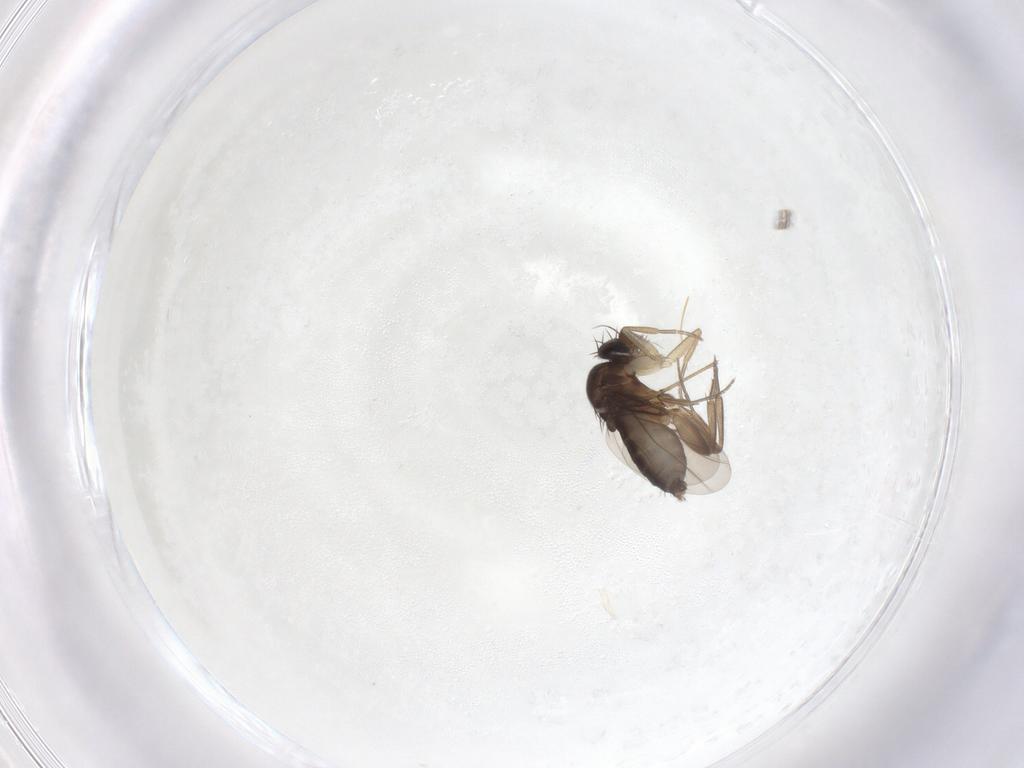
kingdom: Animalia
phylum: Arthropoda
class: Insecta
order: Diptera
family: Phoridae
